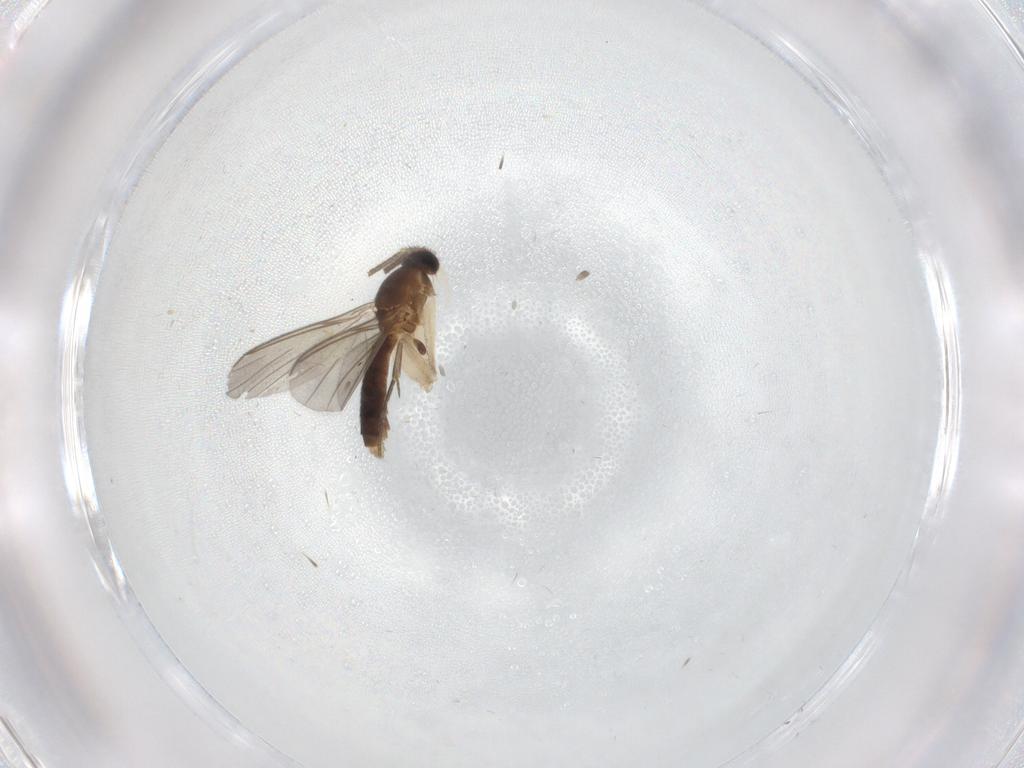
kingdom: Animalia
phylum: Arthropoda
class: Insecta
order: Diptera
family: Mycetophilidae
